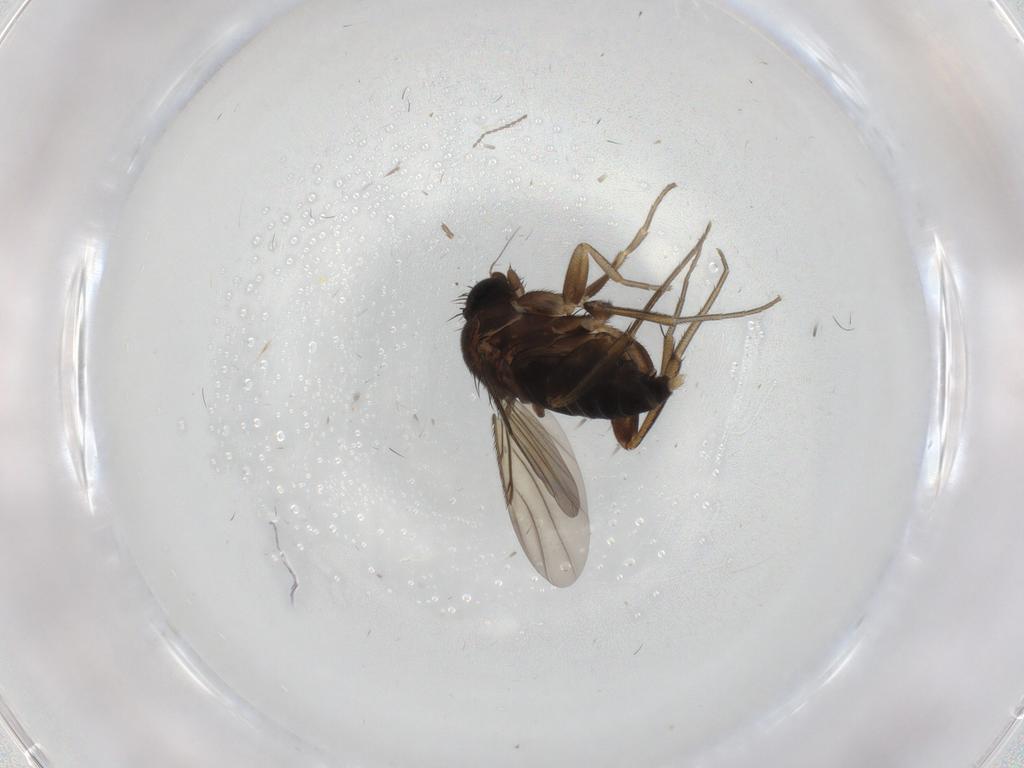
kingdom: Animalia
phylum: Arthropoda
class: Insecta
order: Diptera
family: Phoridae
